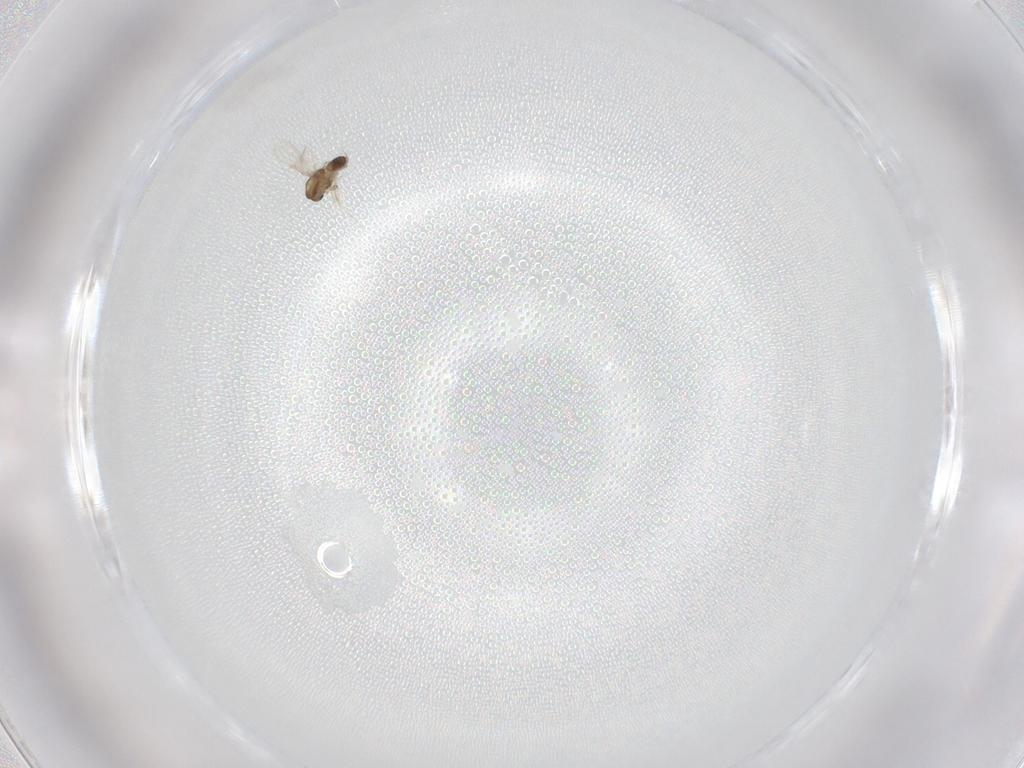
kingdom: Animalia
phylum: Arthropoda
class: Insecta
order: Diptera
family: Chironomidae
